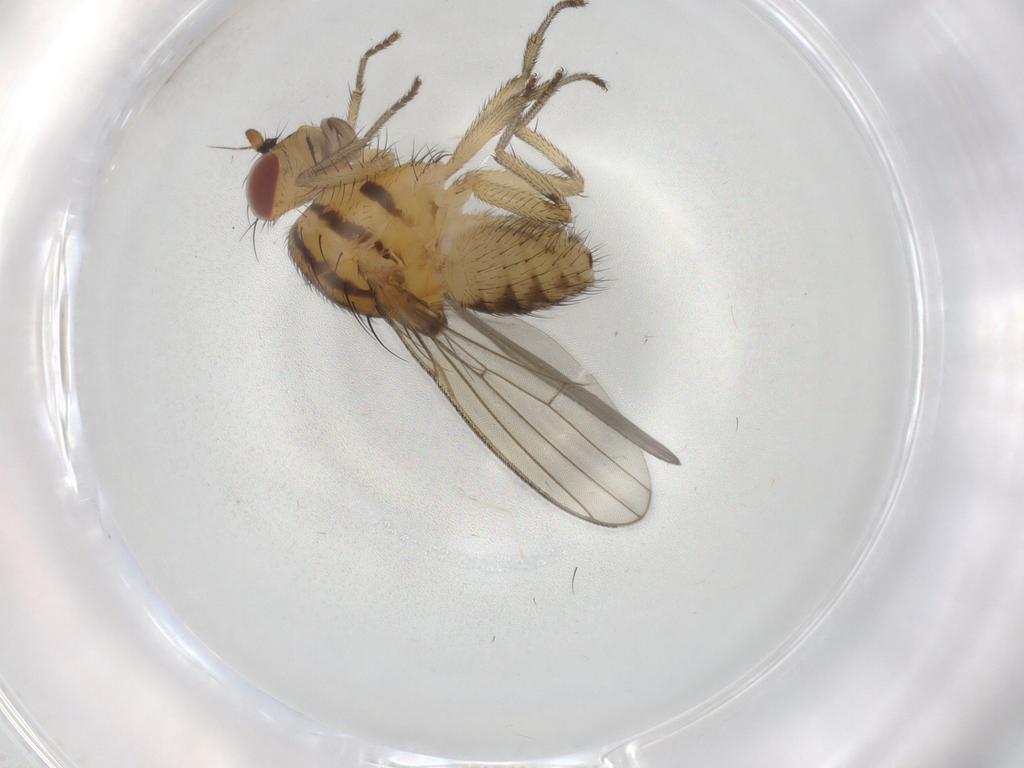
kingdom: Animalia
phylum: Arthropoda
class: Insecta
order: Diptera
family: Cecidomyiidae
